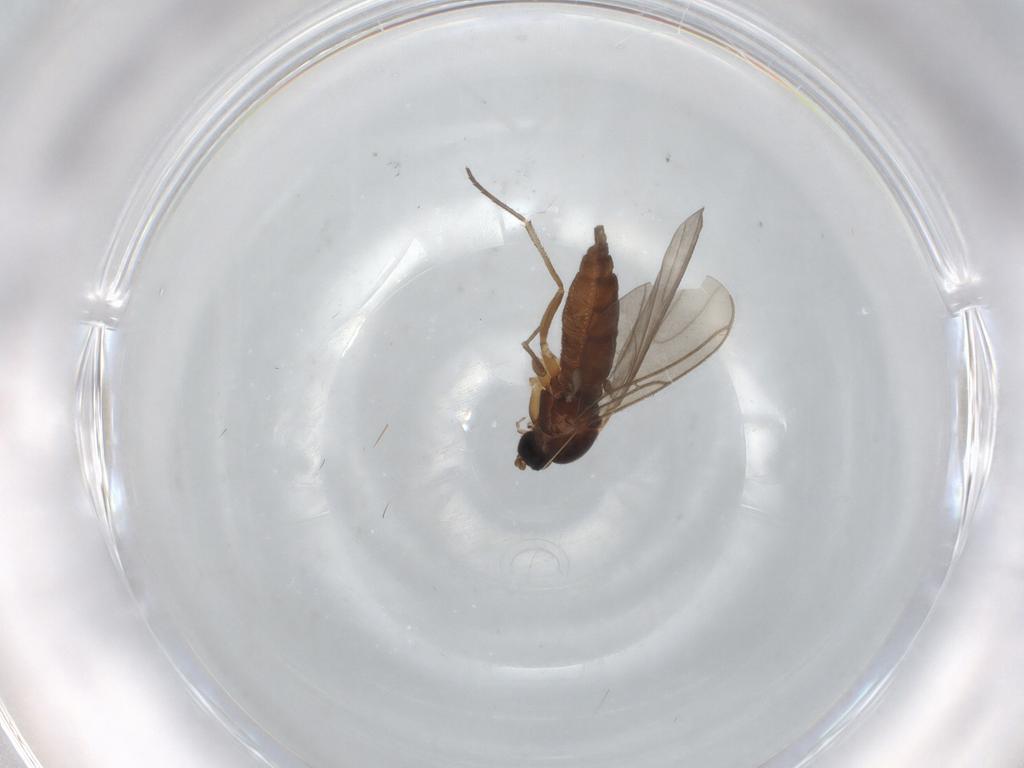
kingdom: Animalia
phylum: Arthropoda
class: Insecta
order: Diptera
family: Sciaridae
